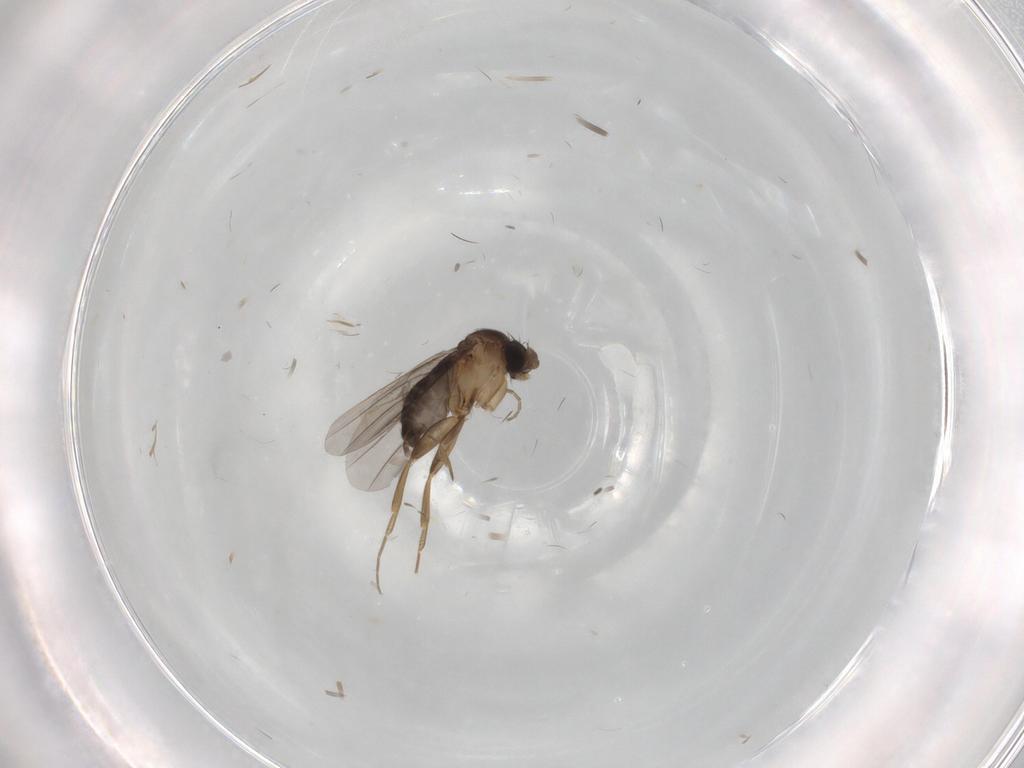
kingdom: Animalia
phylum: Arthropoda
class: Insecta
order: Diptera
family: Phoridae
